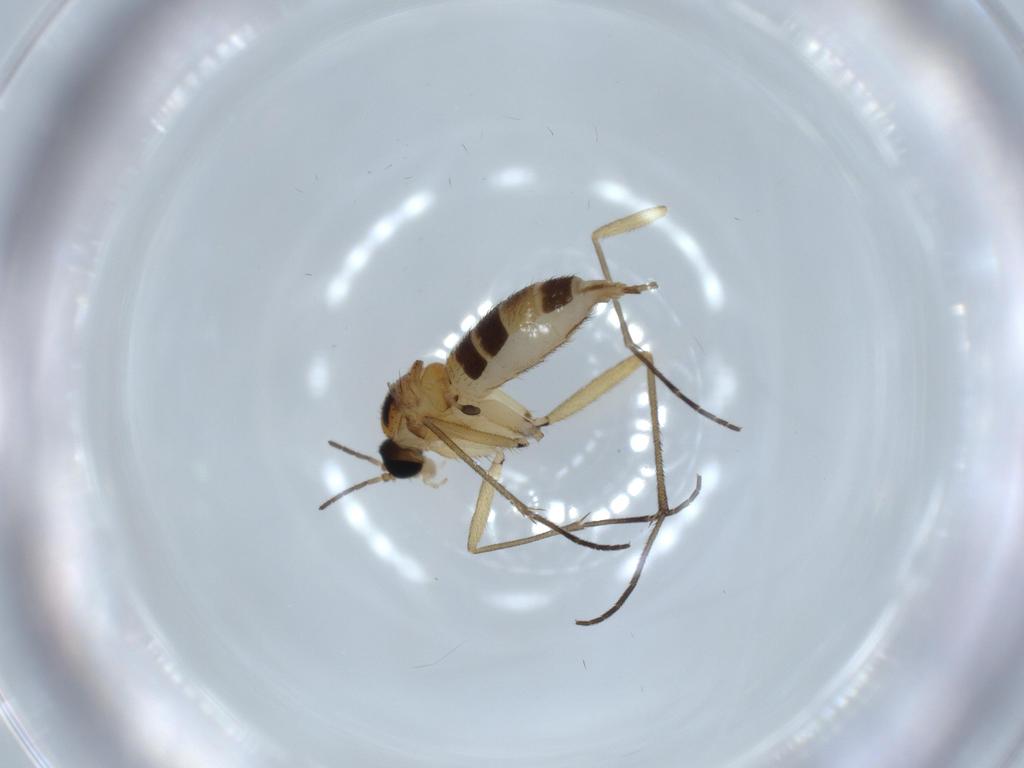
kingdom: Animalia
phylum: Arthropoda
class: Insecta
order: Diptera
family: Sciaridae
